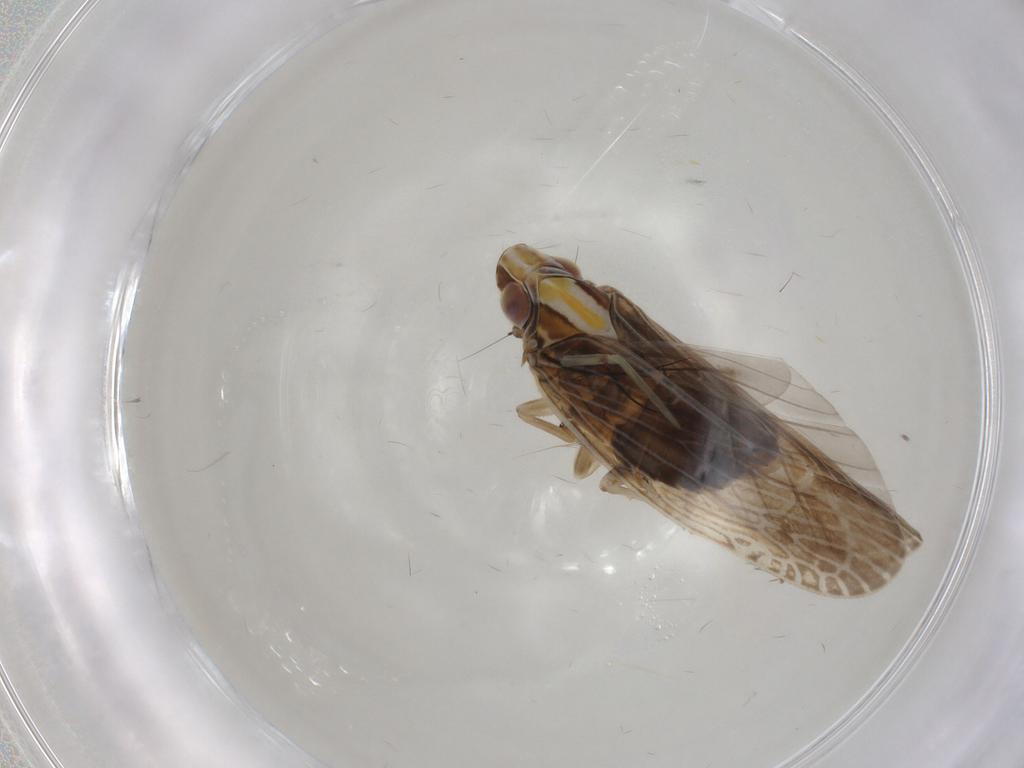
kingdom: Animalia
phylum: Arthropoda
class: Insecta
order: Hemiptera
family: Achilidae
